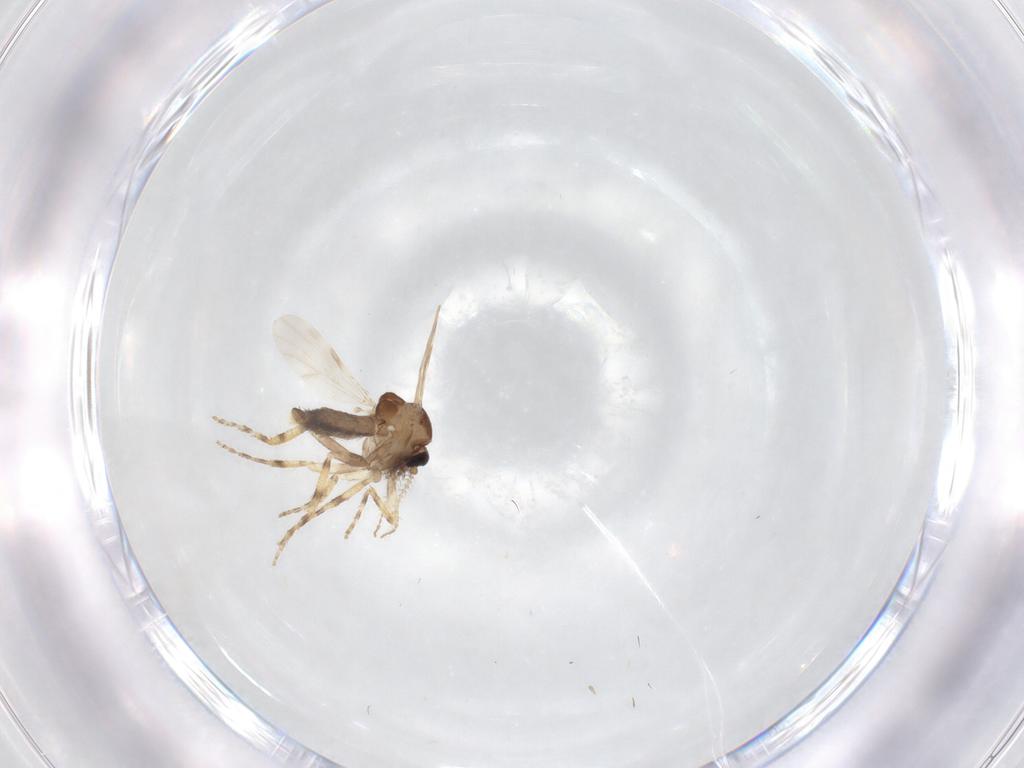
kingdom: Animalia
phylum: Arthropoda
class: Insecta
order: Diptera
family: Ceratopogonidae
